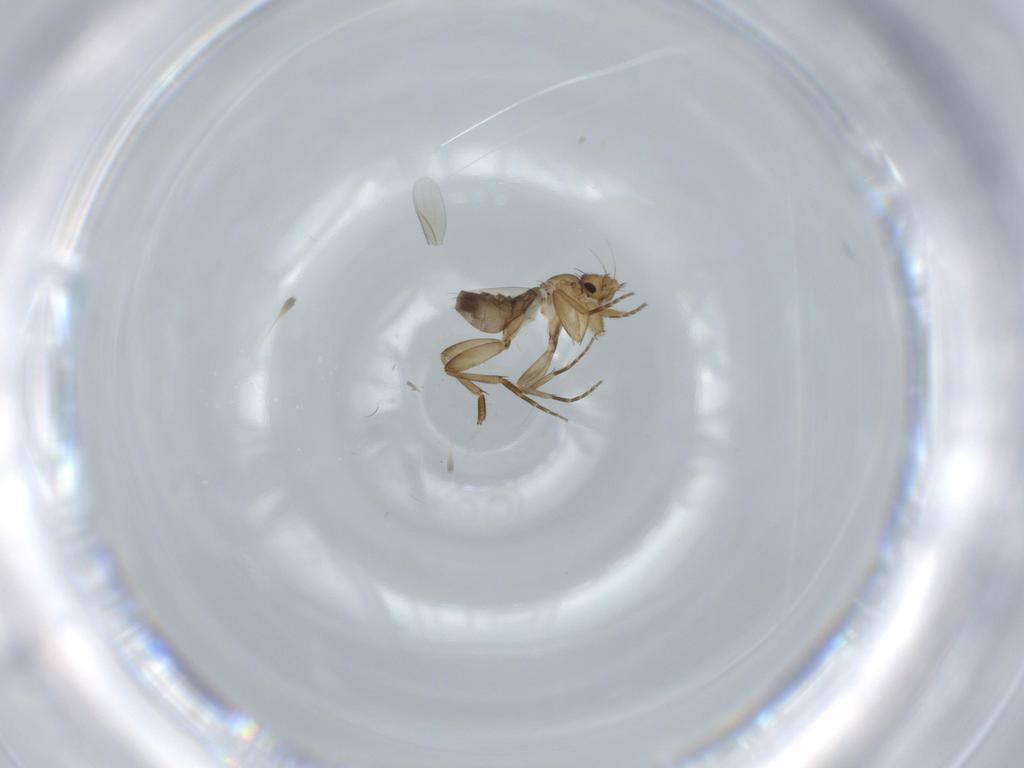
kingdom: Animalia
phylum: Arthropoda
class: Insecta
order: Diptera
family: Phoridae
